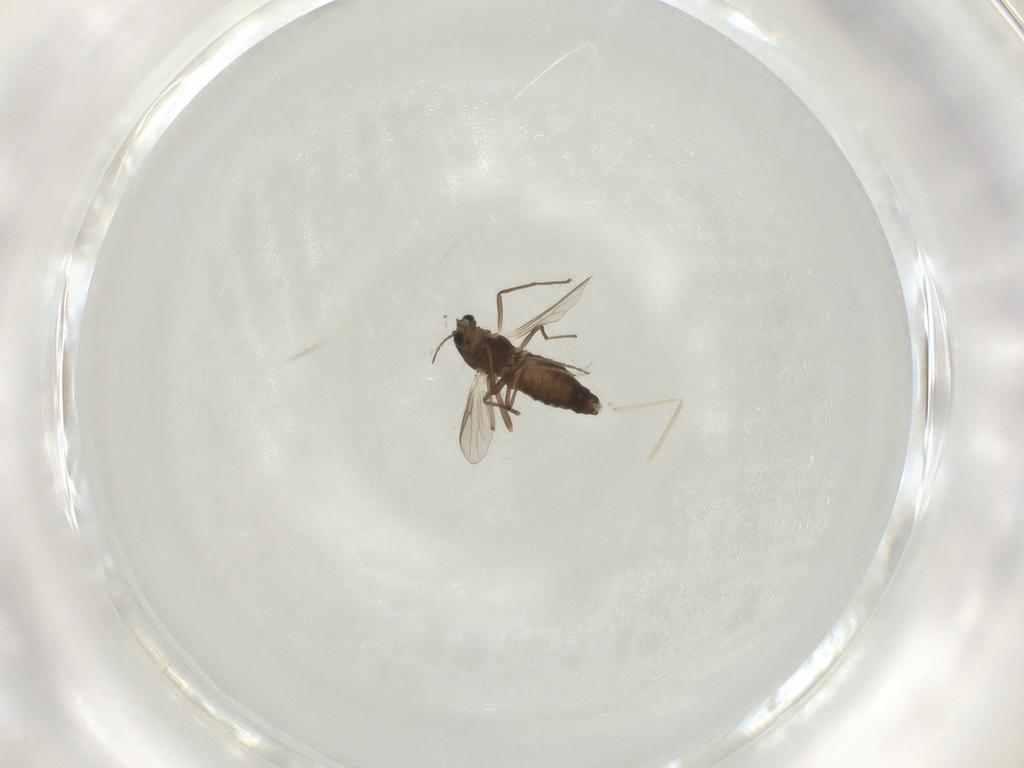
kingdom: Animalia
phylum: Arthropoda
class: Insecta
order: Diptera
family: Chironomidae
